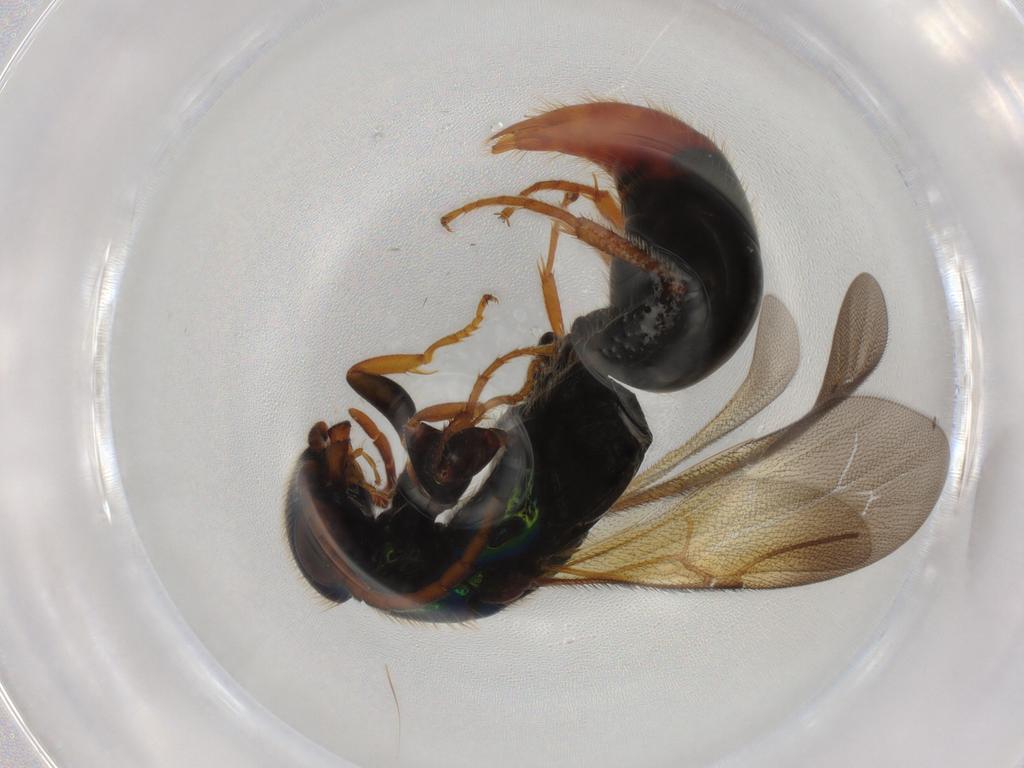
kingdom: Animalia
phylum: Arthropoda
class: Insecta
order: Hymenoptera
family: Bethylidae
